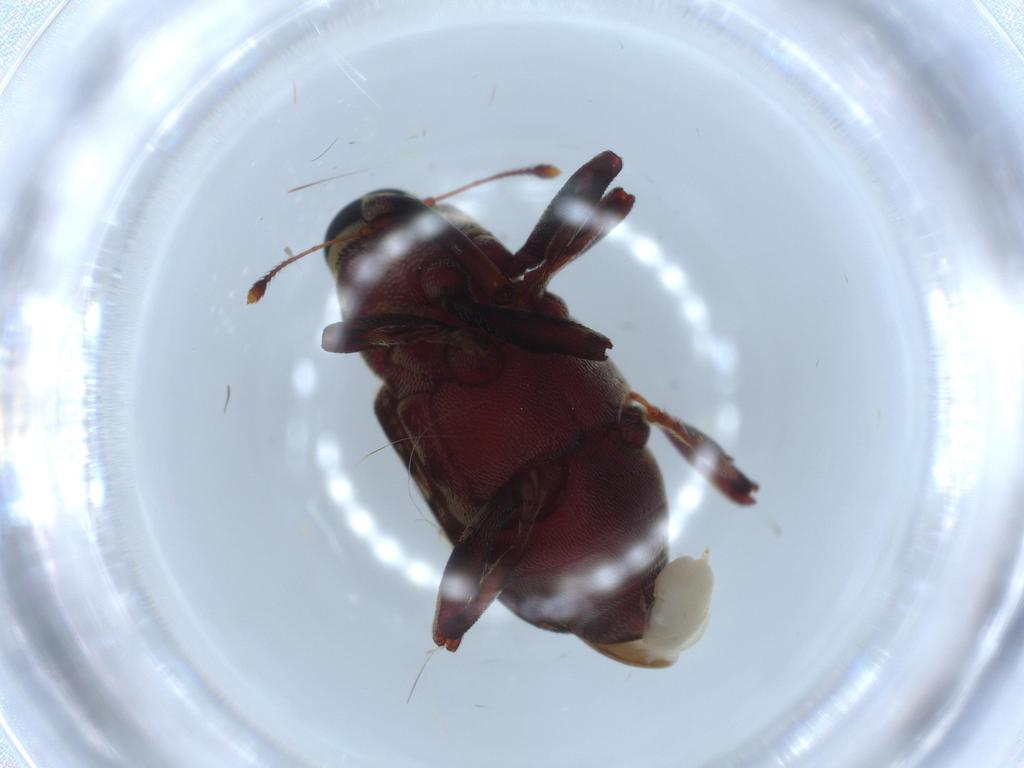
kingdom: Animalia
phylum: Arthropoda
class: Insecta
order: Coleoptera
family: Curculionidae
